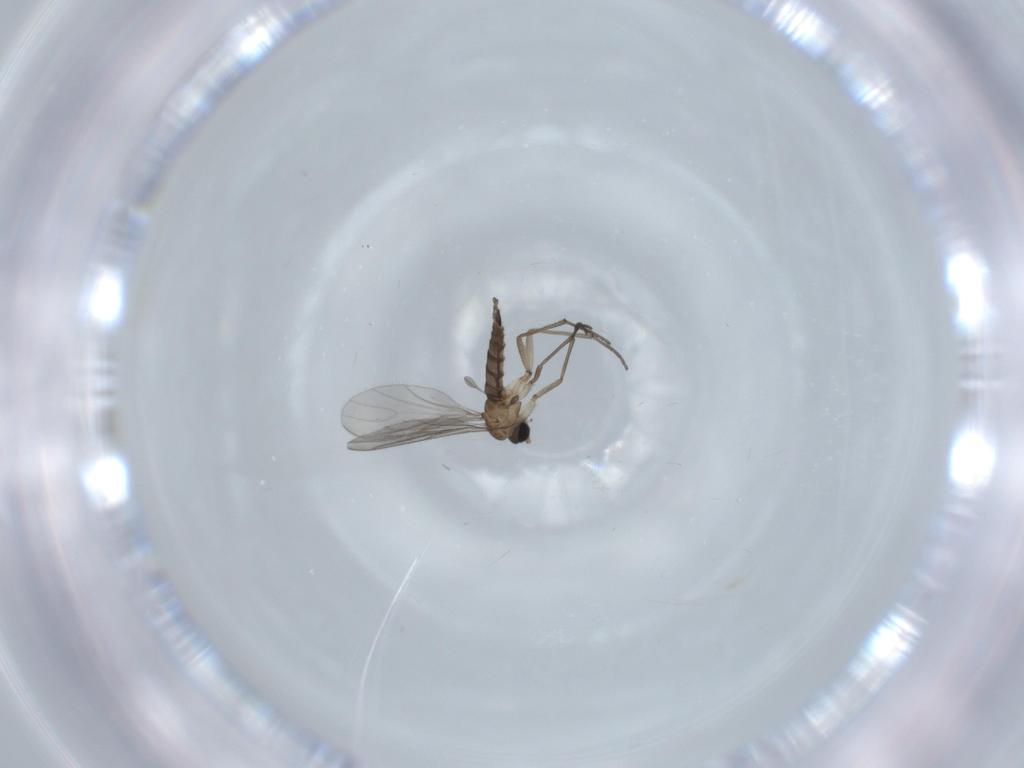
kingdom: Animalia
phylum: Arthropoda
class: Insecta
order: Diptera
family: Sciaridae
